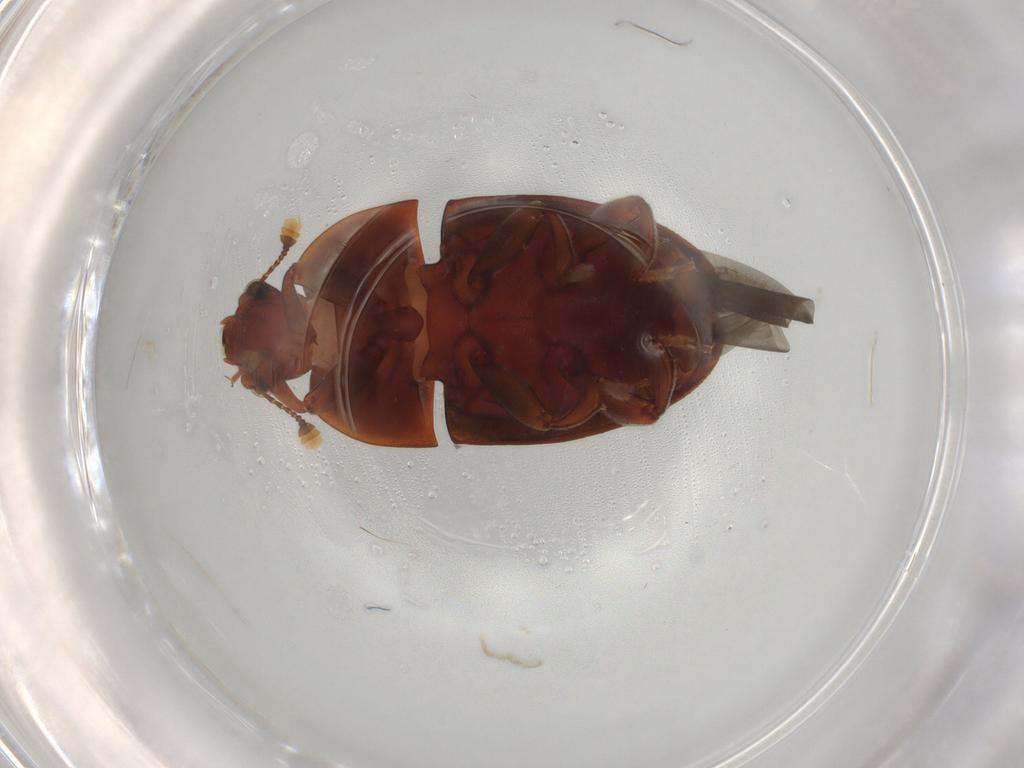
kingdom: Animalia
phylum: Arthropoda
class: Insecta
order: Coleoptera
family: Nitidulidae
